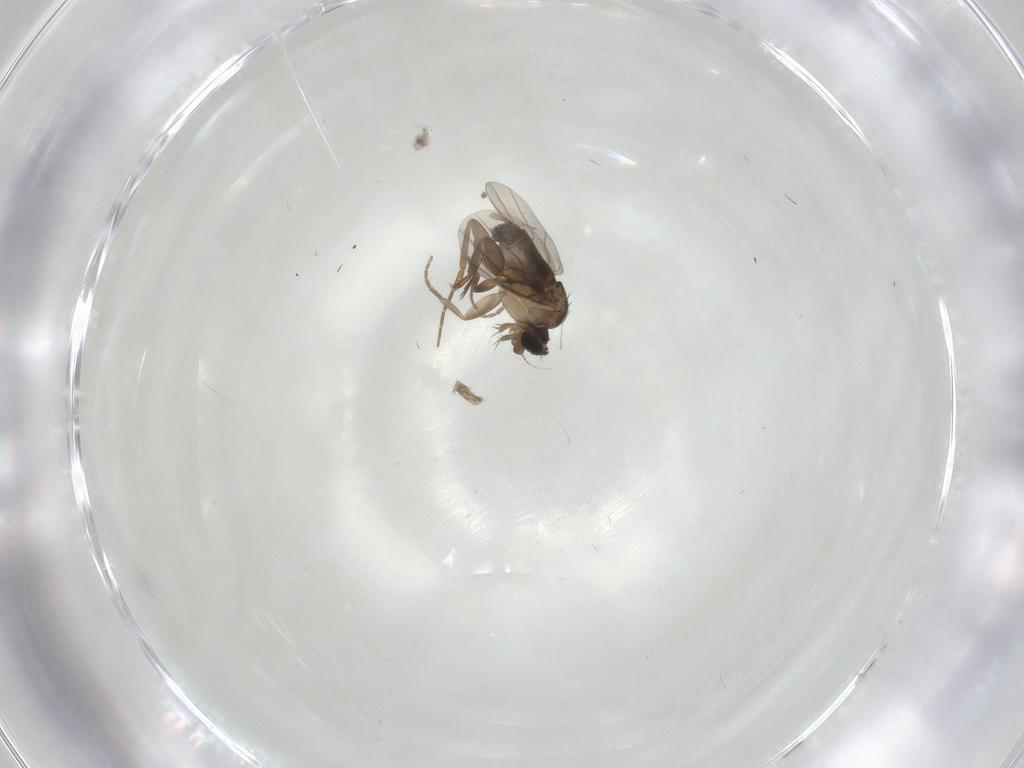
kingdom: Animalia
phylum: Arthropoda
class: Insecta
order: Diptera
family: Phoridae
